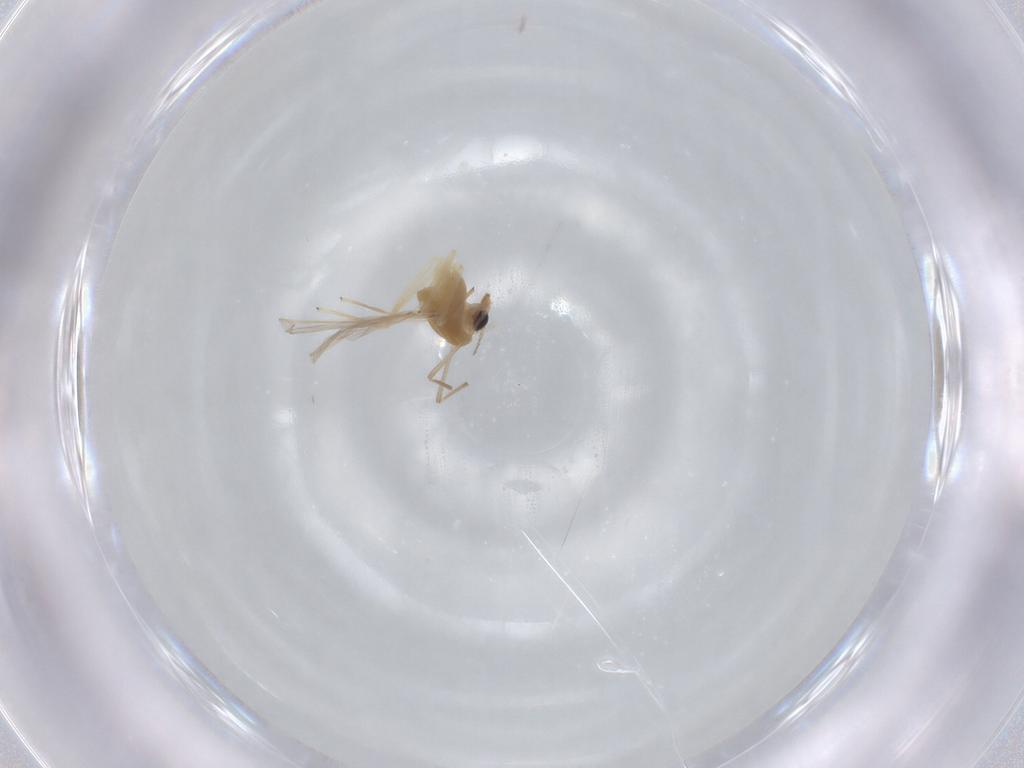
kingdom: Animalia
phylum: Arthropoda
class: Insecta
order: Diptera
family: Chironomidae
